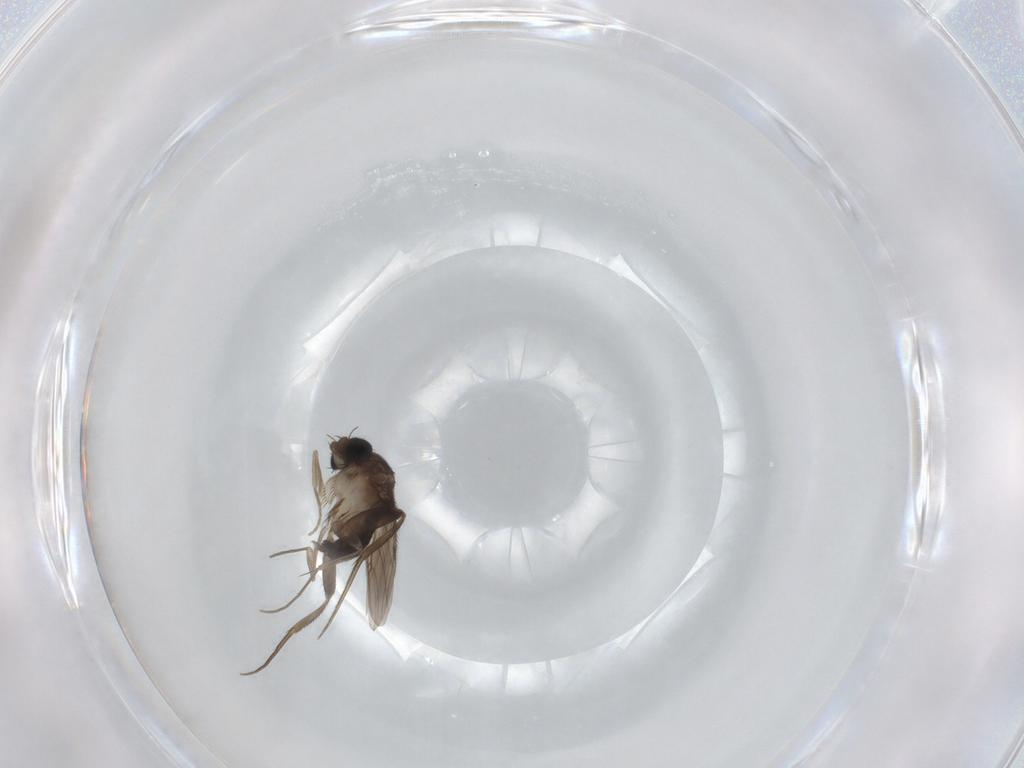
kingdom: Animalia
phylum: Arthropoda
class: Insecta
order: Diptera
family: Phoridae
